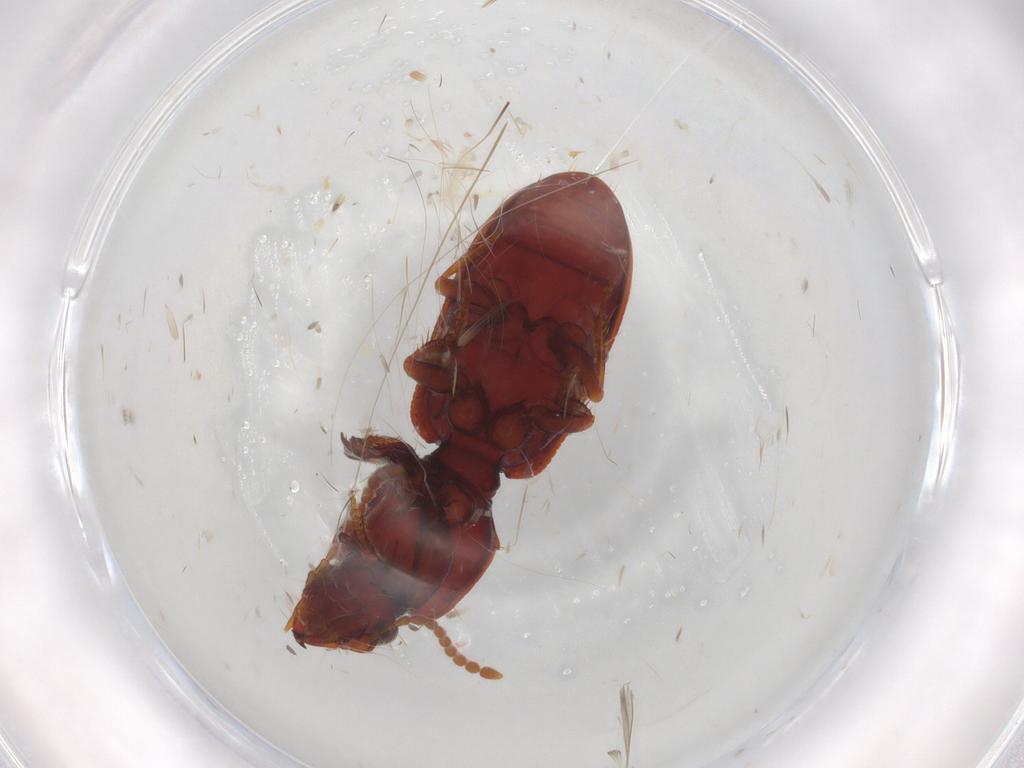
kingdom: Animalia
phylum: Arthropoda
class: Insecta
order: Coleoptera
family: Carabidae
